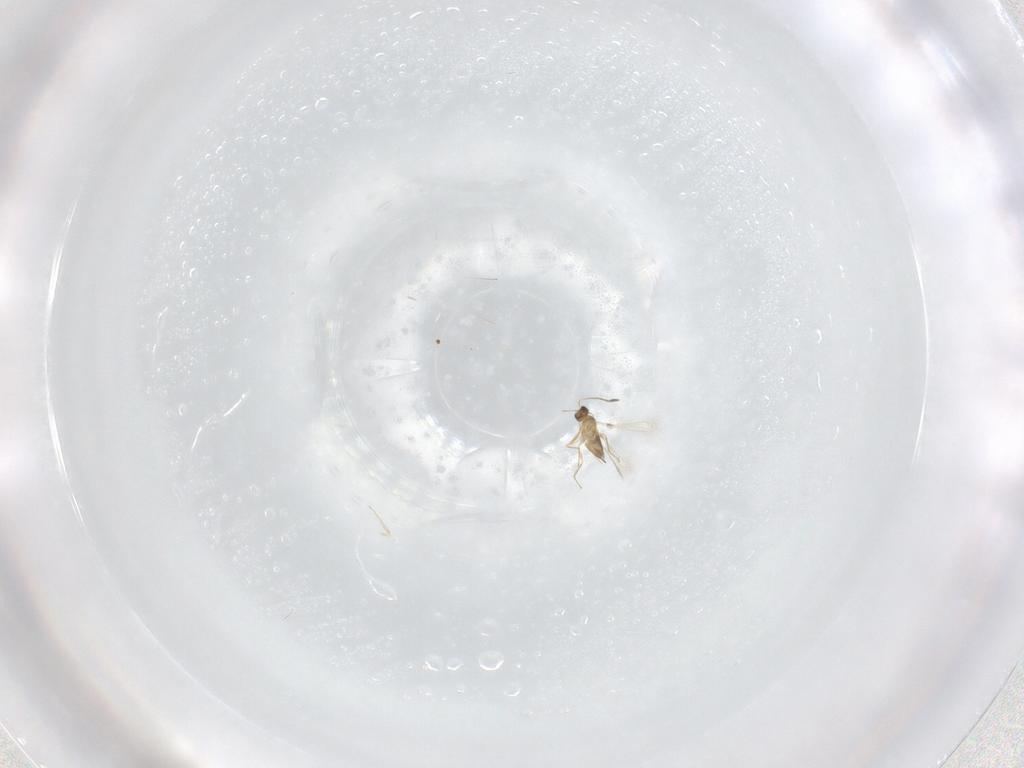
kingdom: Animalia
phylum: Arthropoda
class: Insecta
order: Hymenoptera
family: Mymaridae
